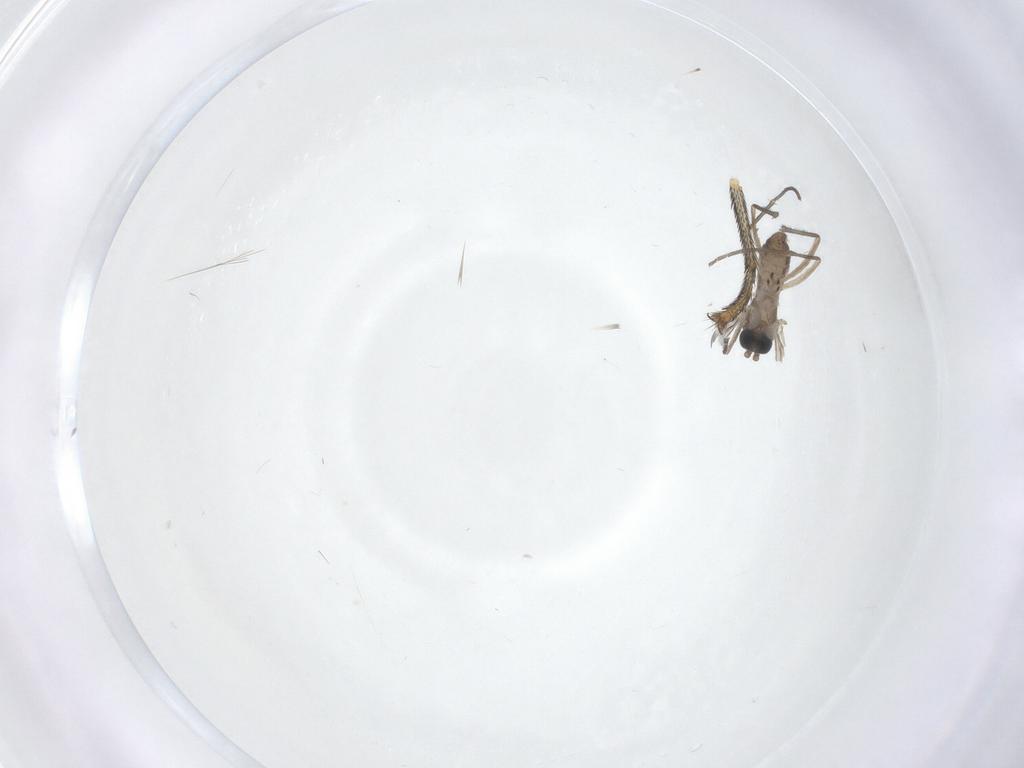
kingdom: Animalia
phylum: Arthropoda
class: Insecta
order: Diptera
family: Sciaridae
